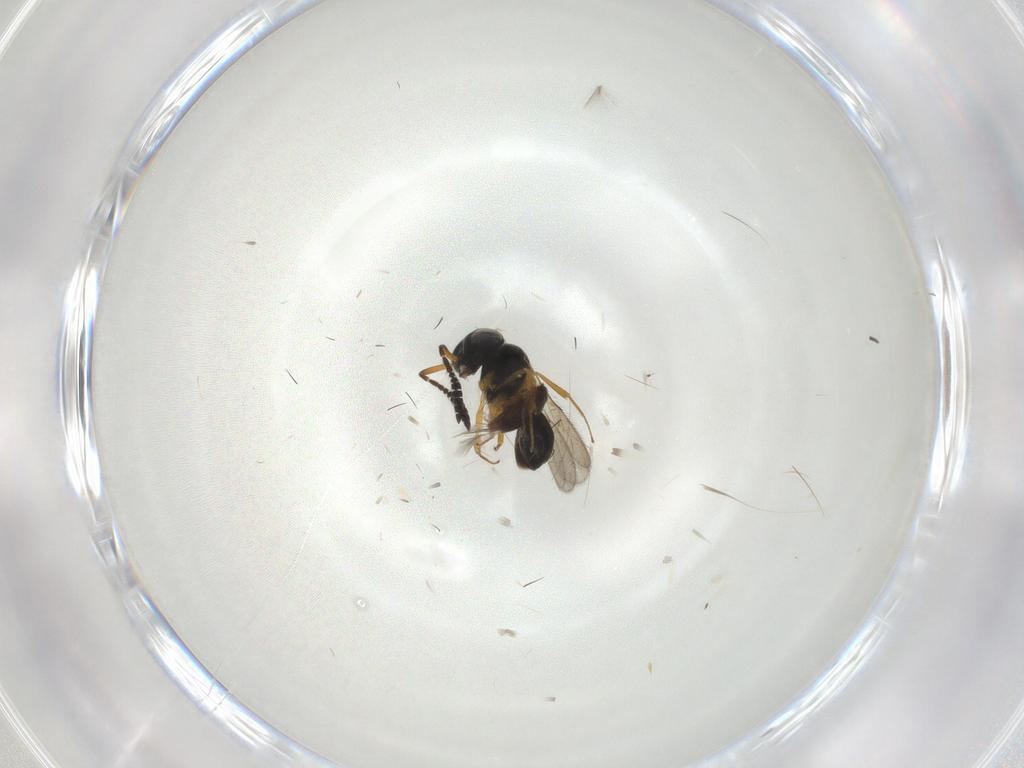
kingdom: Animalia
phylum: Arthropoda
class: Insecta
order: Hymenoptera
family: Scelionidae
